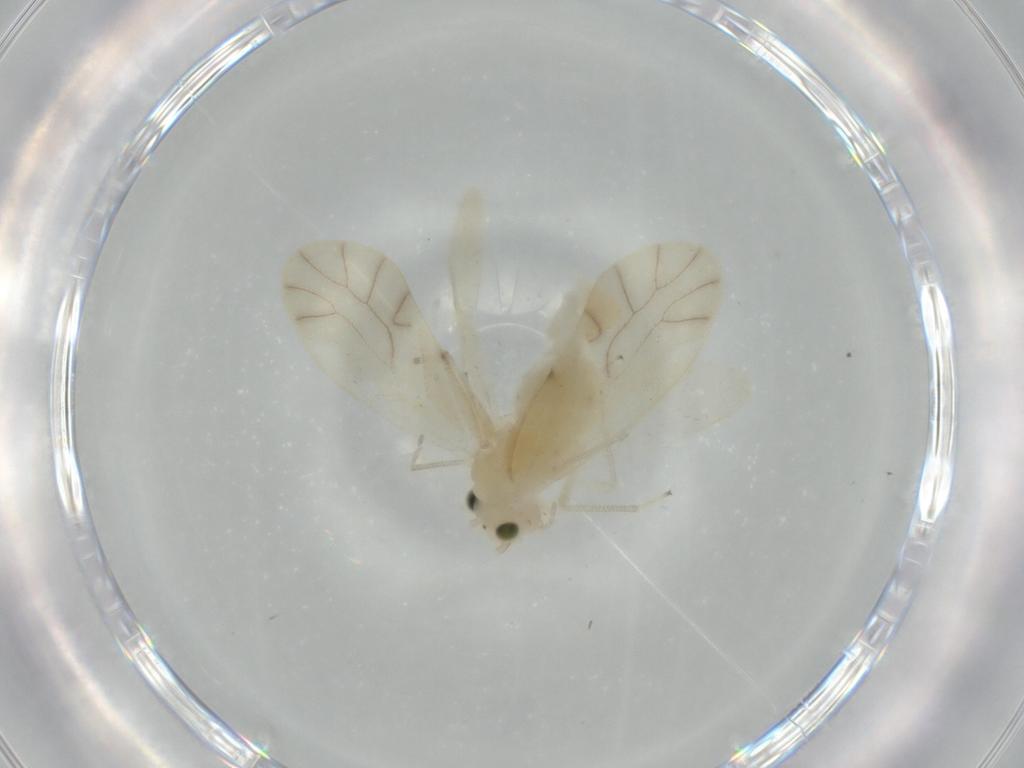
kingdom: Animalia
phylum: Arthropoda
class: Insecta
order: Psocodea
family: Caeciliusidae
